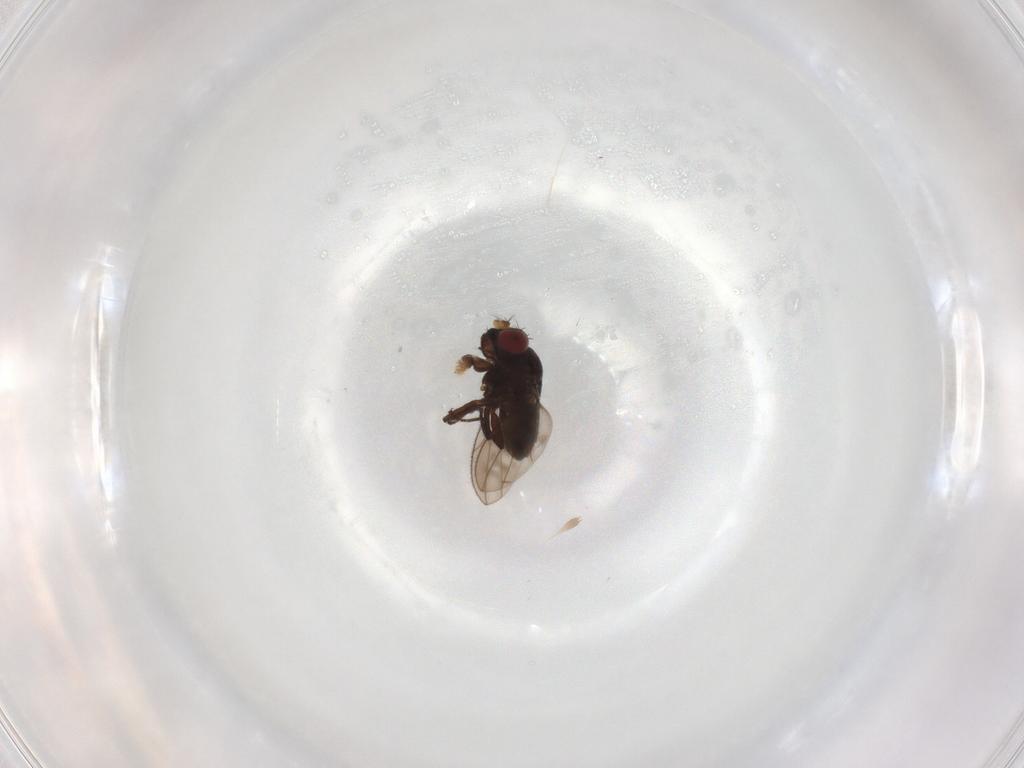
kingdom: Animalia
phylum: Arthropoda
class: Insecta
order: Diptera
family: Ephydridae
